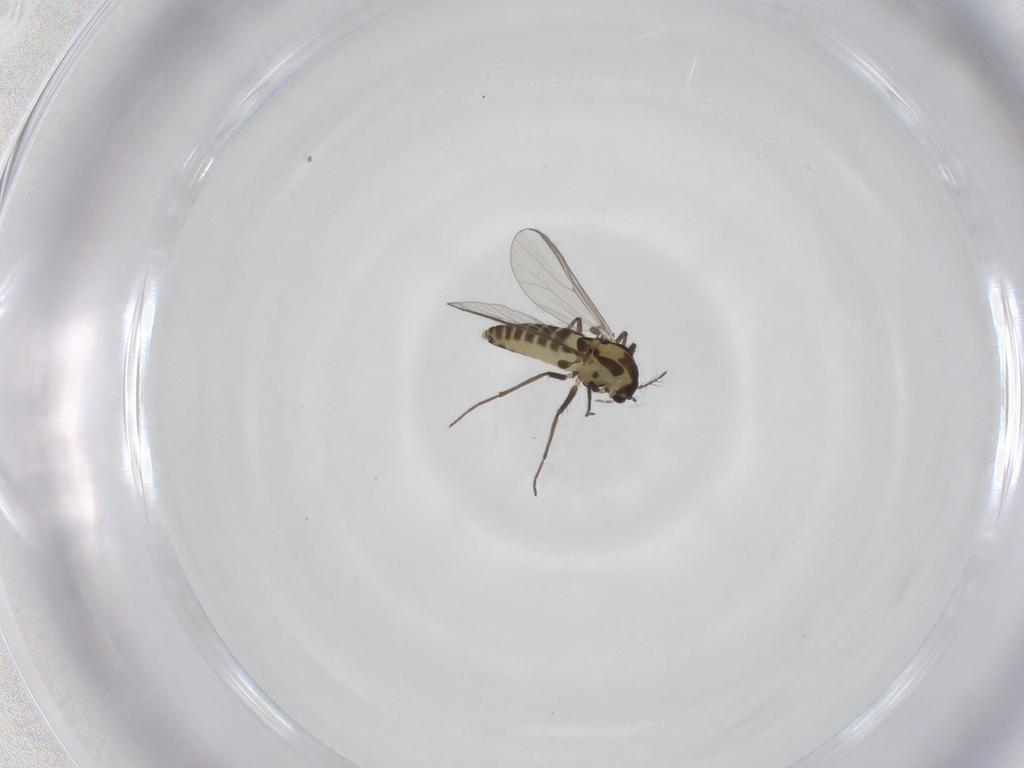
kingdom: Animalia
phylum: Arthropoda
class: Insecta
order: Diptera
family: Chironomidae
